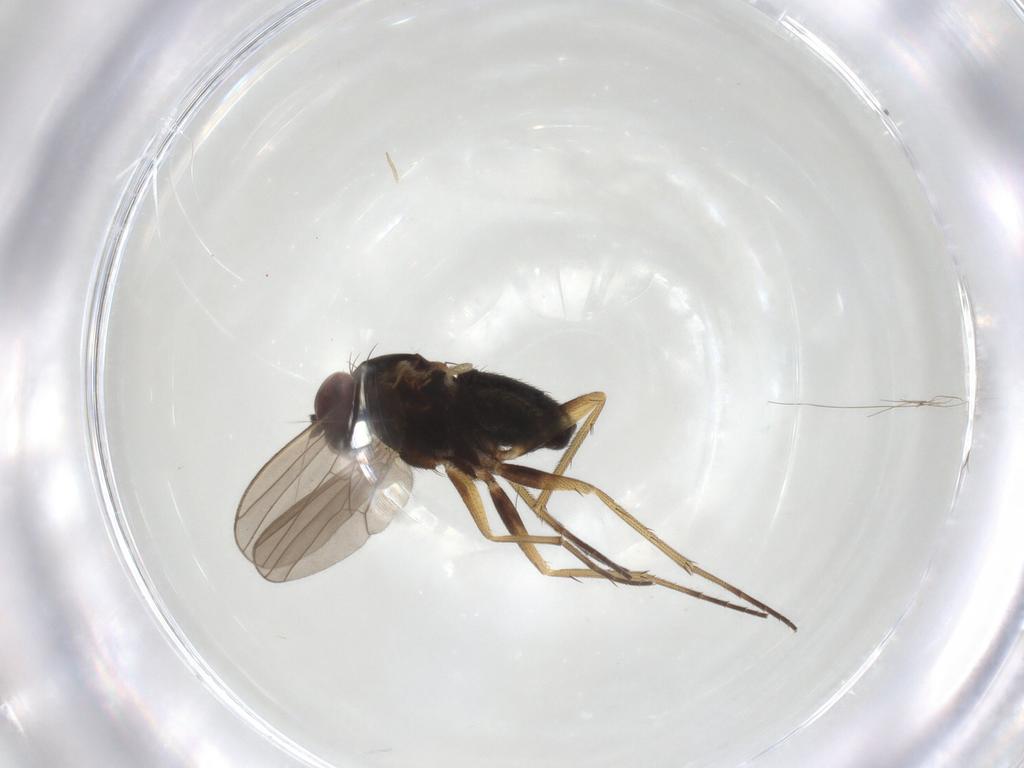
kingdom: Animalia
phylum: Arthropoda
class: Insecta
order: Diptera
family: Dolichopodidae
